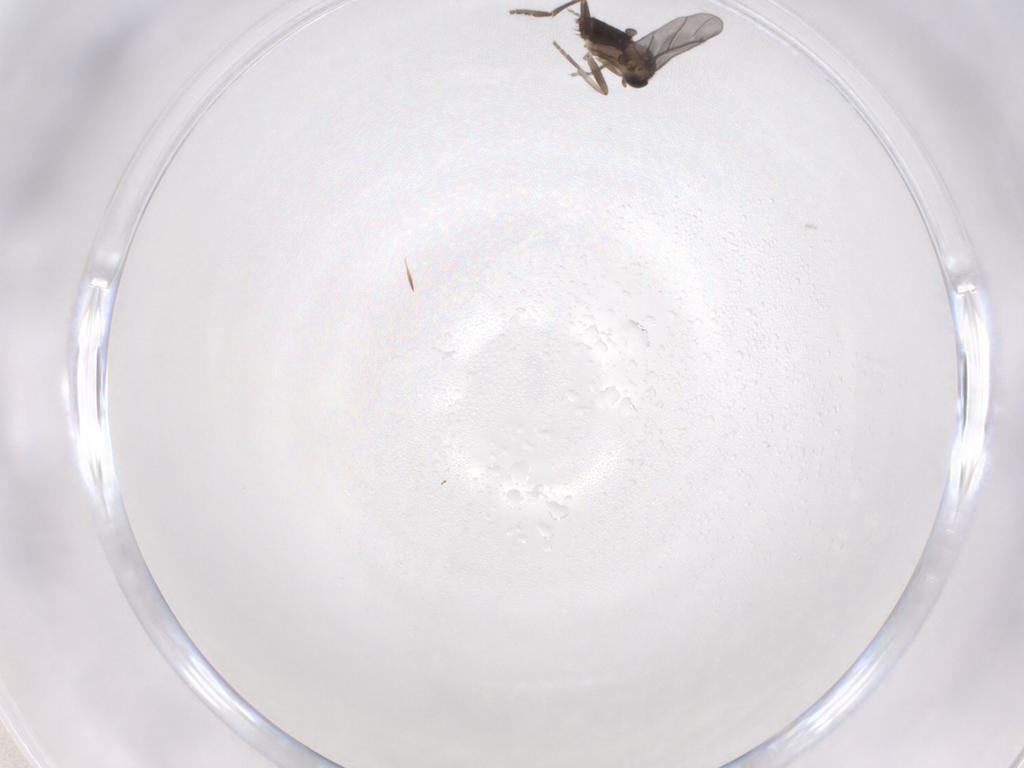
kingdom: Animalia
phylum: Arthropoda
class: Insecta
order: Diptera
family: Phoridae
